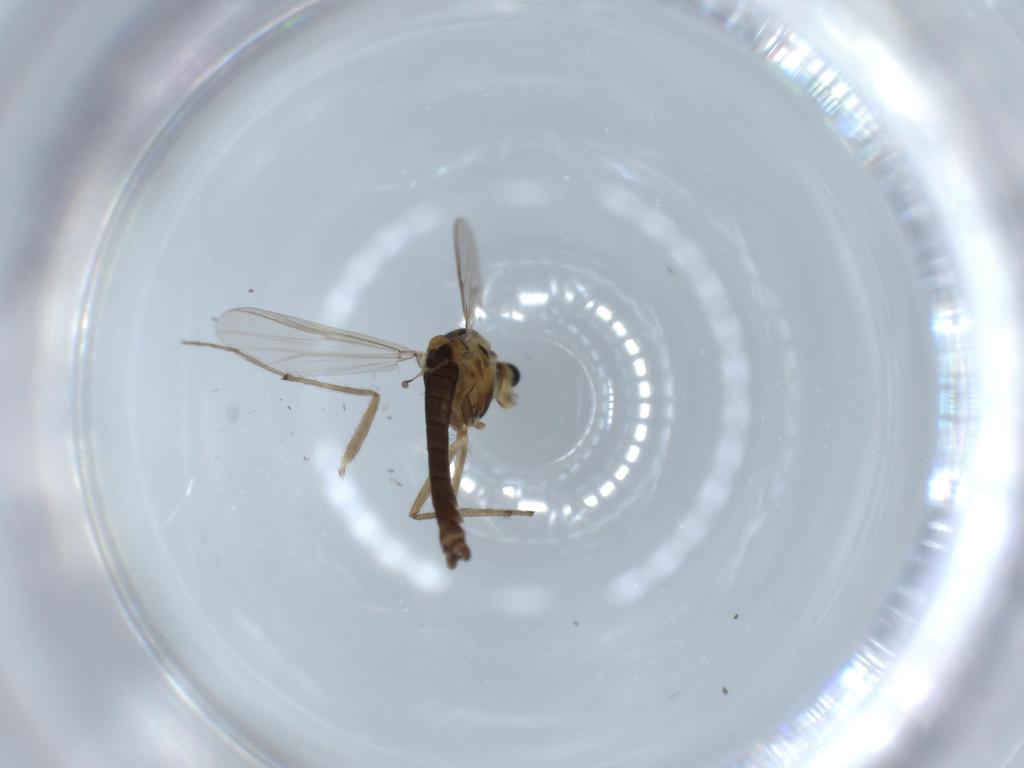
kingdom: Animalia
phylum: Arthropoda
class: Insecta
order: Diptera
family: Chironomidae
